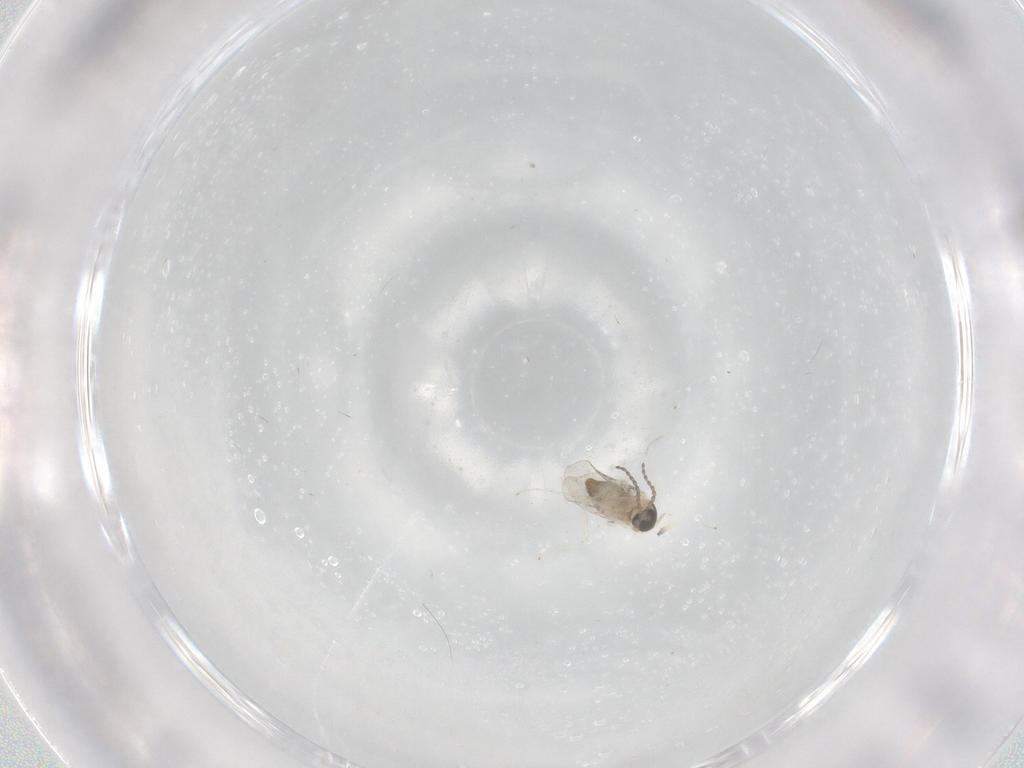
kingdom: Animalia
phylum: Arthropoda
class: Insecta
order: Diptera
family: Cecidomyiidae
